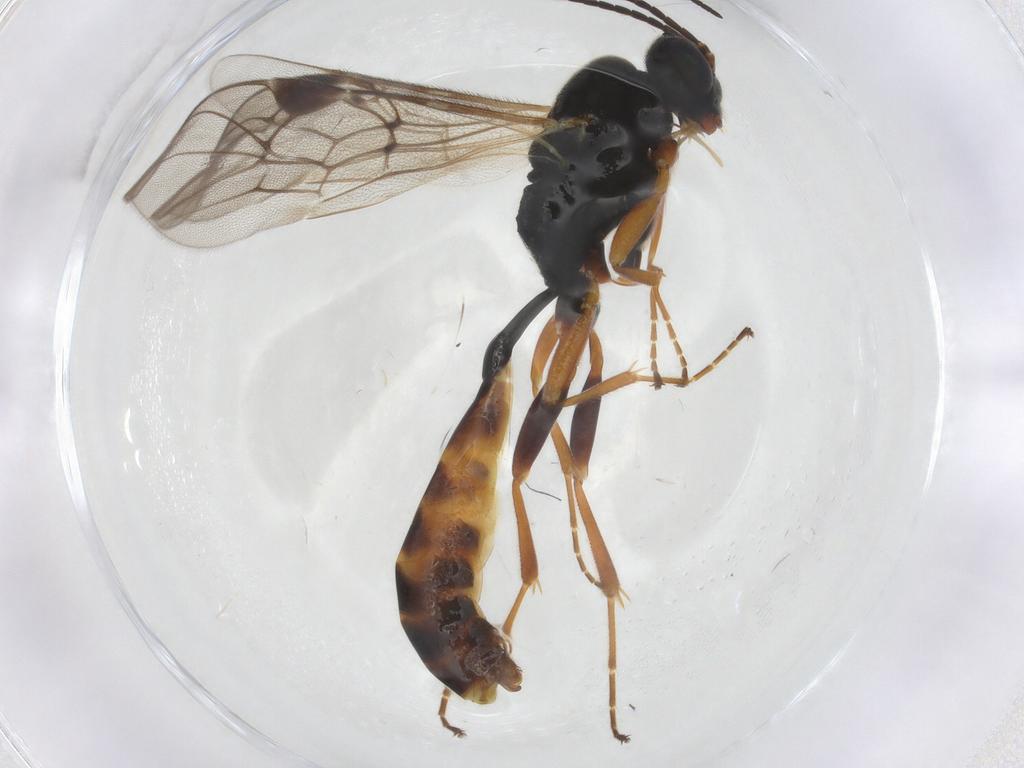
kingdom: Animalia
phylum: Arthropoda
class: Insecta
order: Hymenoptera
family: Ichneumonidae
